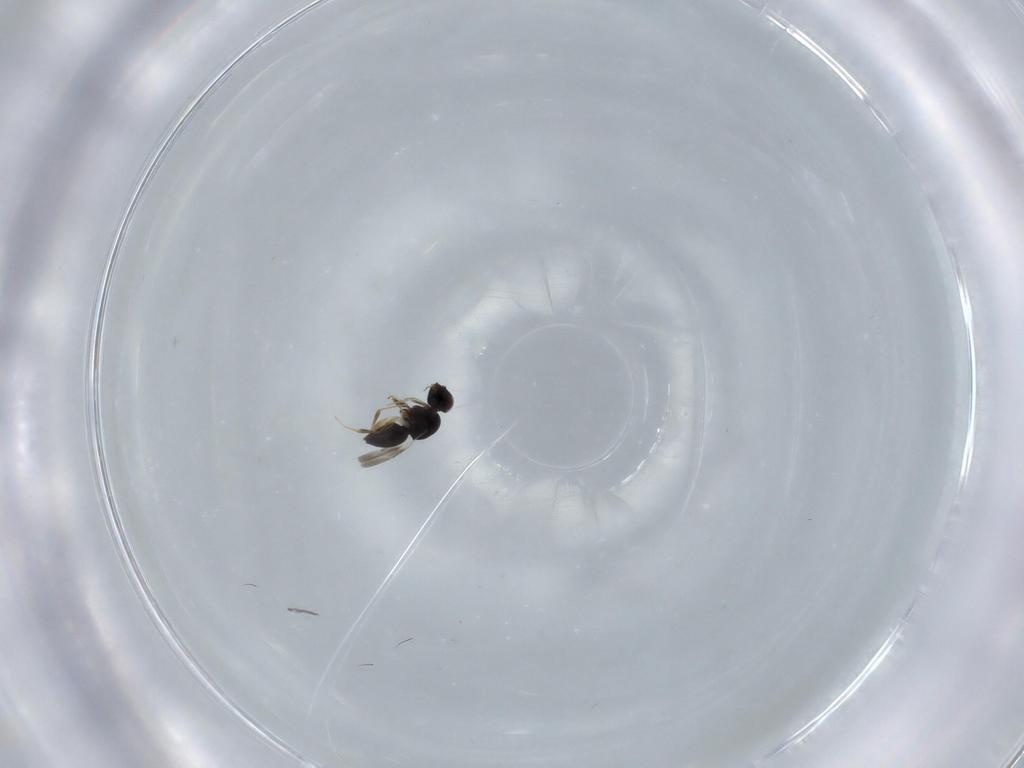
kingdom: Animalia
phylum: Arthropoda
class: Insecta
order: Hymenoptera
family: Ceraphronidae
